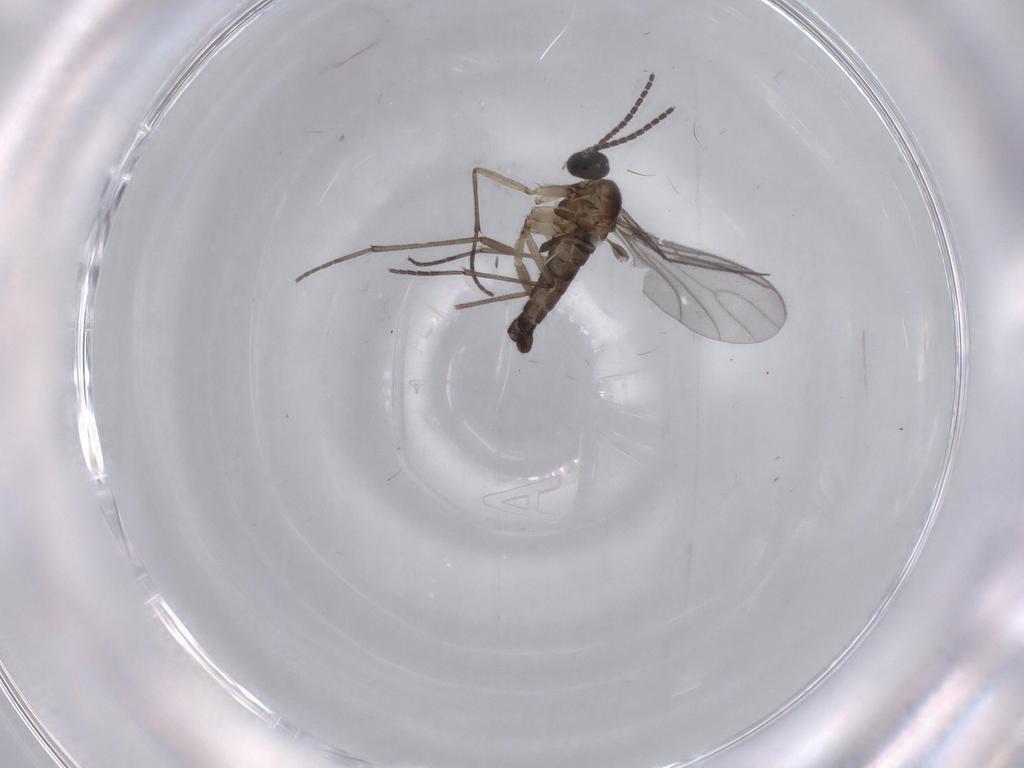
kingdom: Animalia
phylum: Arthropoda
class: Insecta
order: Diptera
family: Sciaridae
